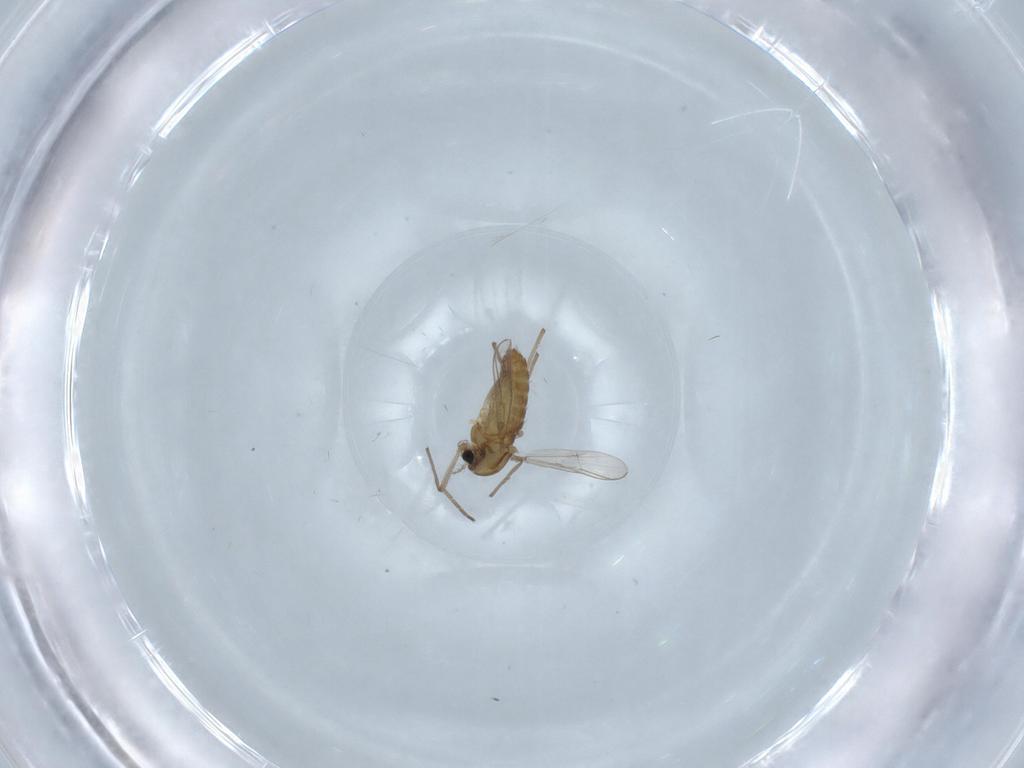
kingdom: Animalia
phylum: Arthropoda
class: Insecta
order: Diptera
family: Chironomidae
